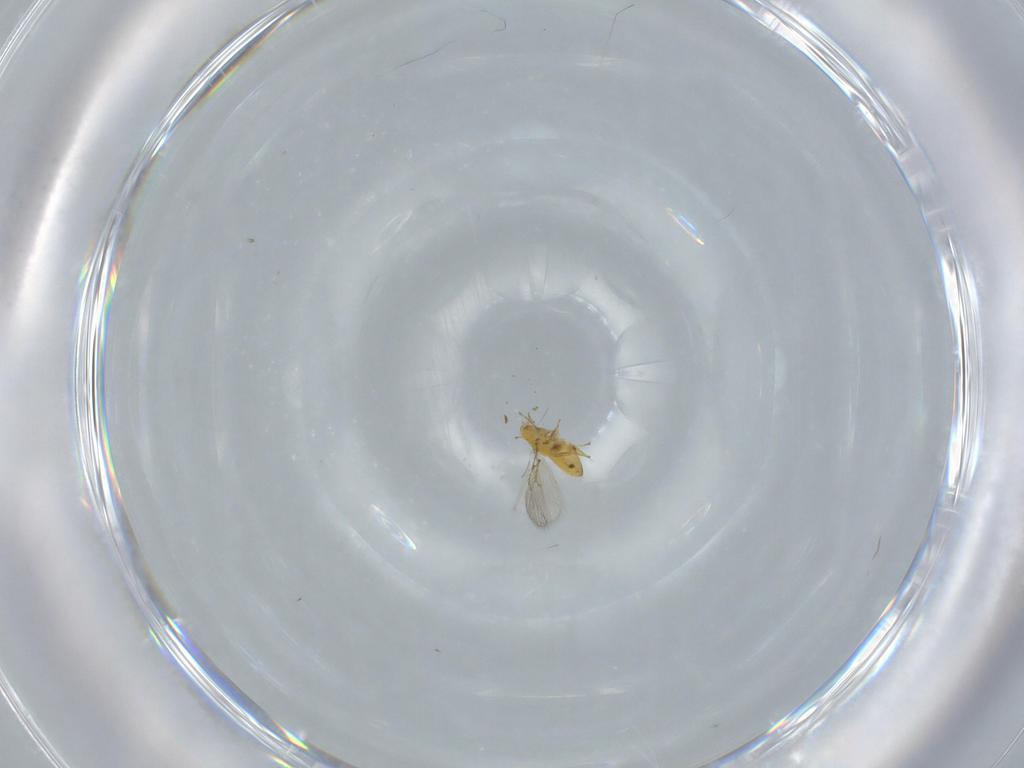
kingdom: Animalia
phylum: Arthropoda
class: Insecta
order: Hymenoptera
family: Trichogrammatidae
